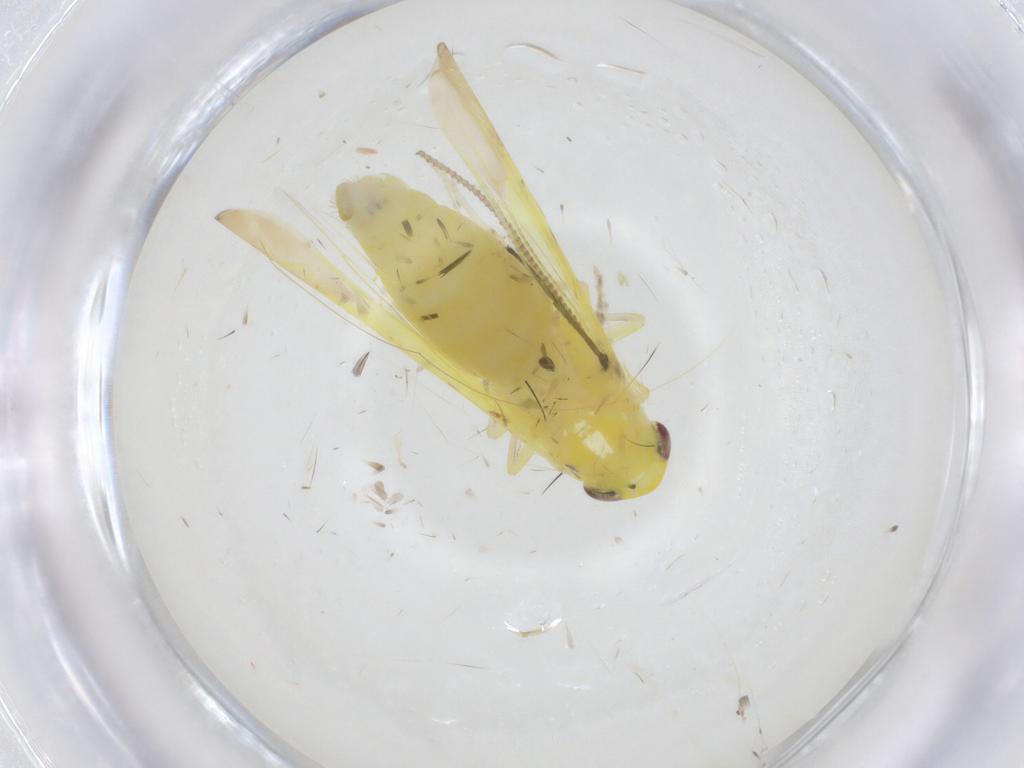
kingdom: Animalia
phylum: Arthropoda
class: Insecta
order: Hemiptera
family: Cicadellidae
